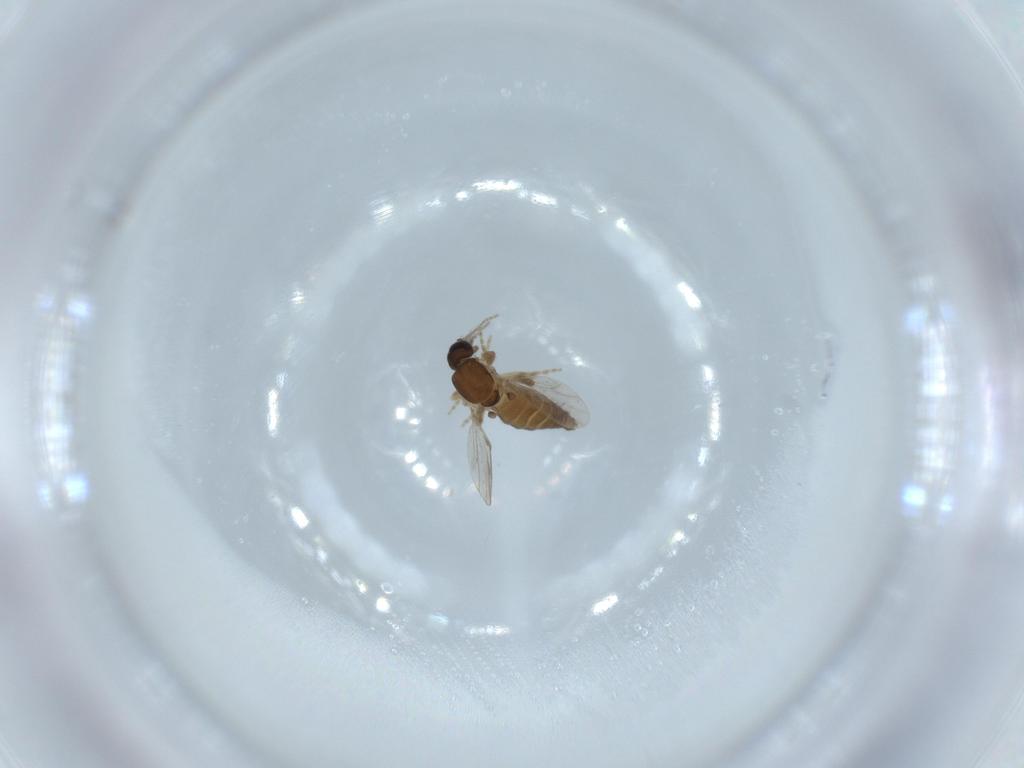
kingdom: Animalia
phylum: Arthropoda
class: Insecta
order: Diptera
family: Ceratopogonidae
